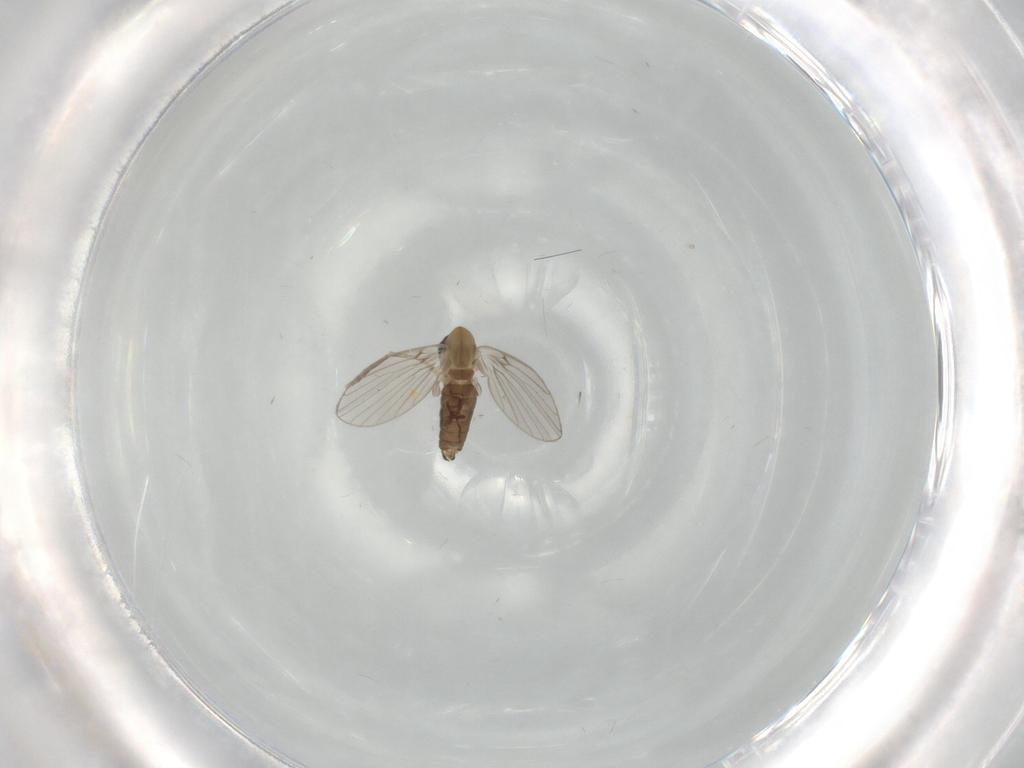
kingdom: Animalia
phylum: Arthropoda
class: Insecta
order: Diptera
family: Psychodidae
